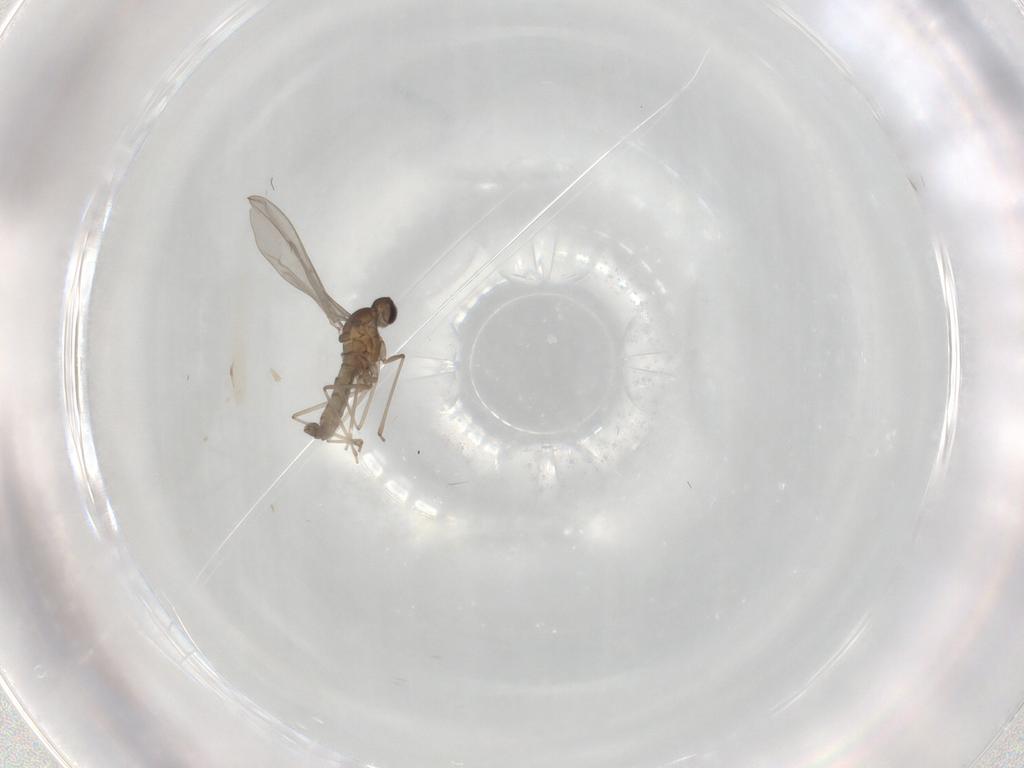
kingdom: Animalia
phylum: Arthropoda
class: Insecta
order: Diptera
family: Cecidomyiidae
